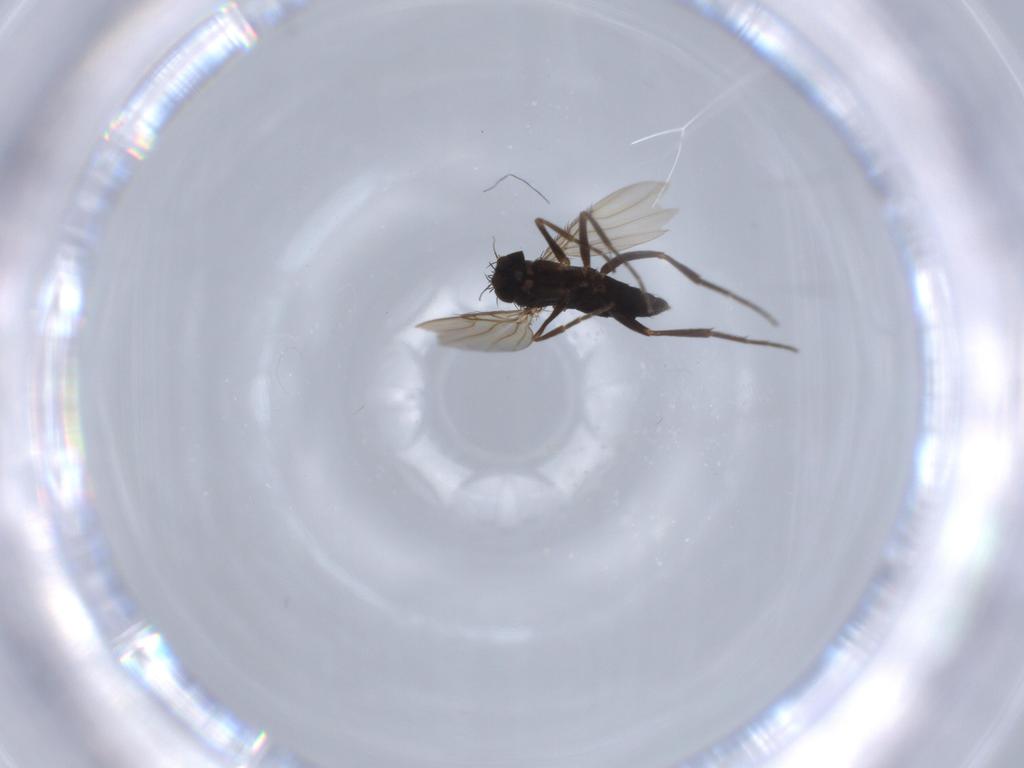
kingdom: Animalia
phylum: Arthropoda
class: Insecta
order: Diptera
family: Phoridae
